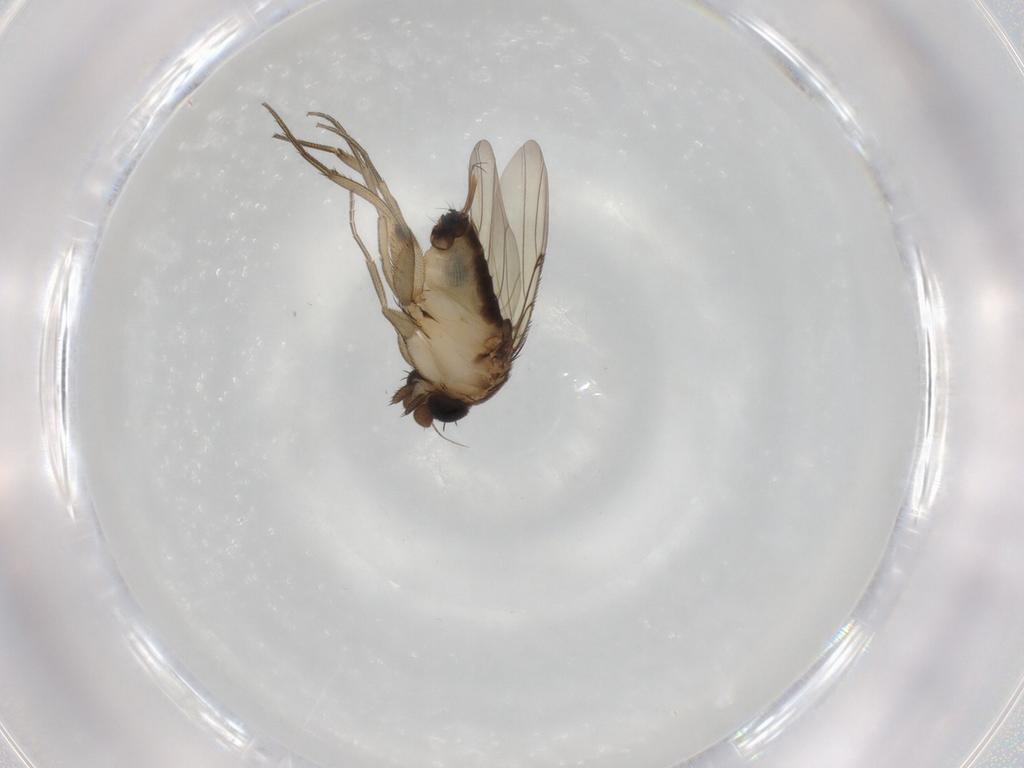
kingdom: Animalia
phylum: Arthropoda
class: Insecta
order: Diptera
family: Phoridae
